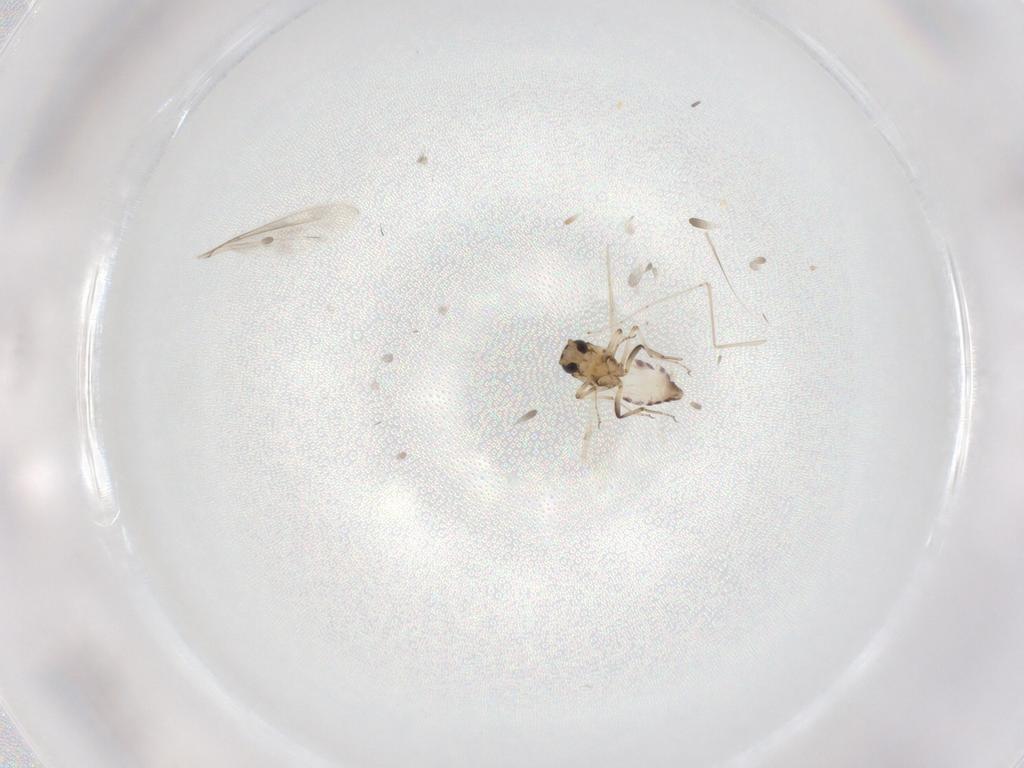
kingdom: Animalia
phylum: Arthropoda
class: Insecta
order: Diptera
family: Ceratopogonidae
